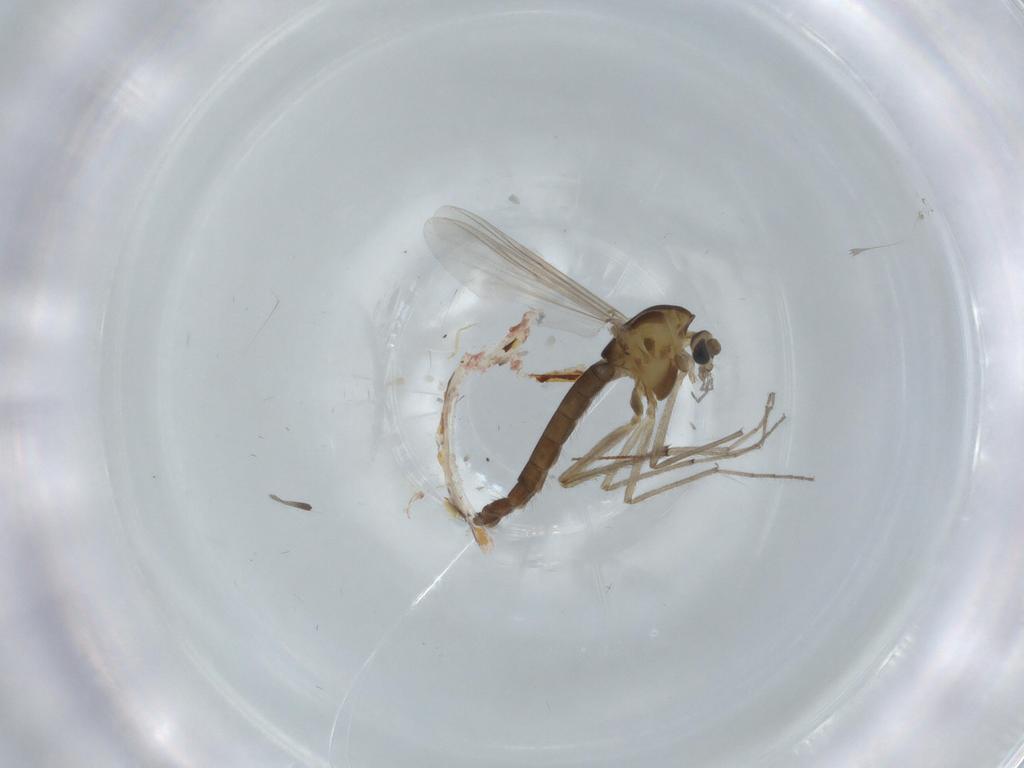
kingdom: Animalia
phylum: Arthropoda
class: Insecta
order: Diptera
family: Chironomidae
